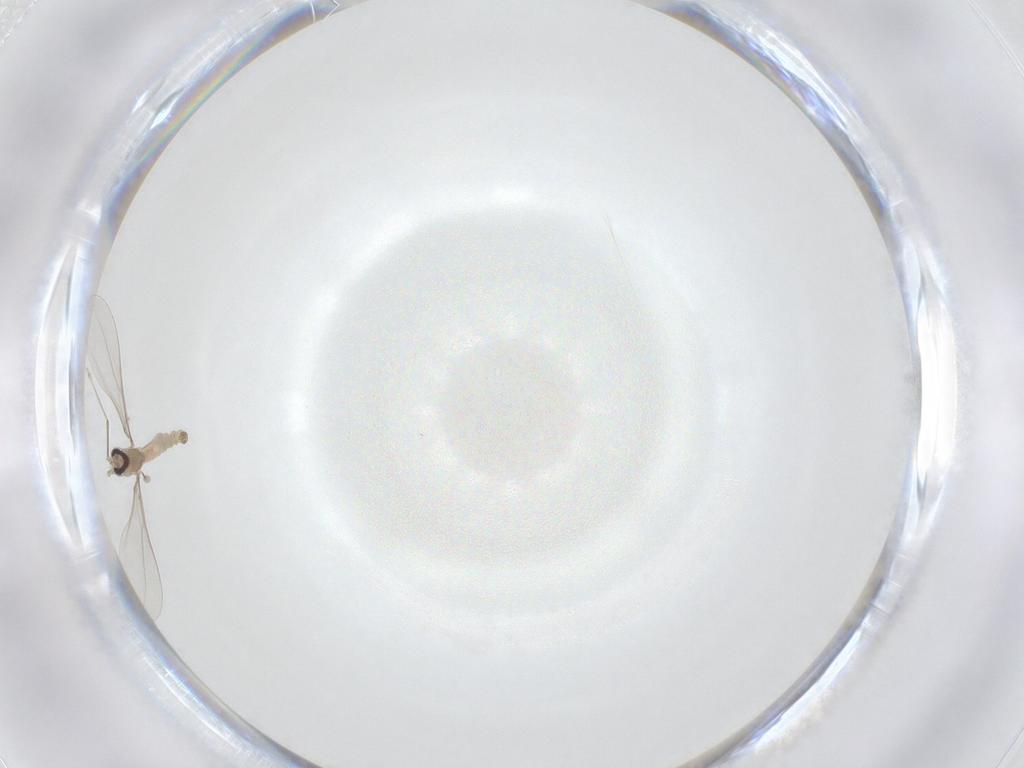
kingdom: Animalia
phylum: Arthropoda
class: Insecta
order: Diptera
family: Cecidomyiidae
